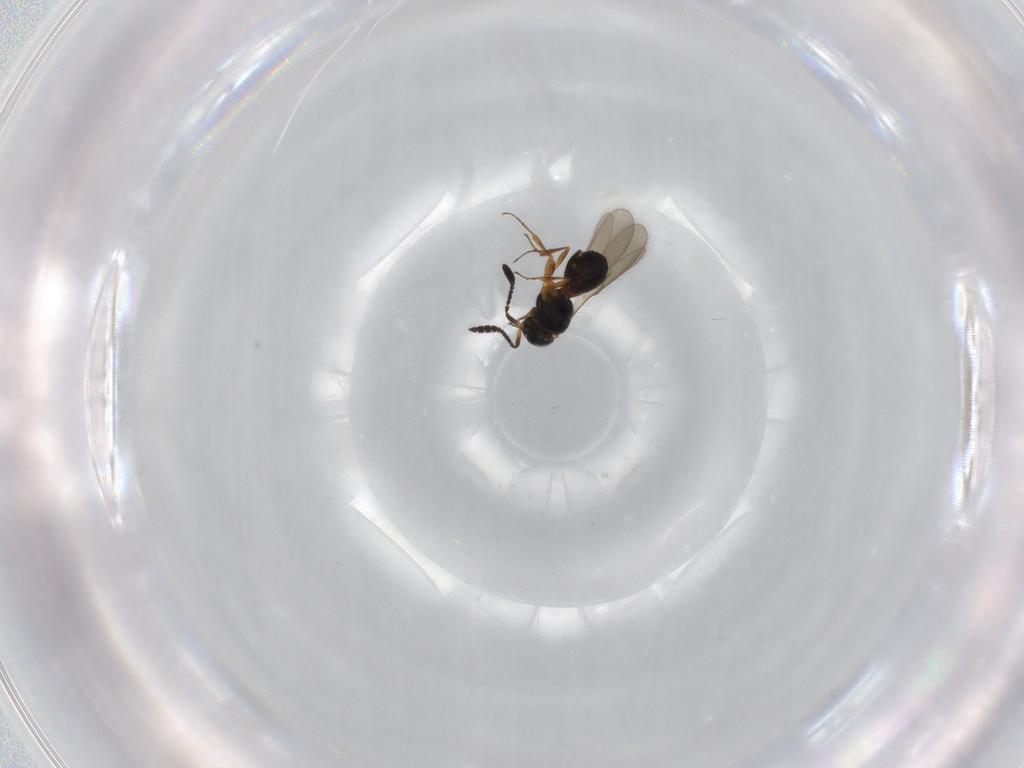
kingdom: Animalia
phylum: Arthropoda
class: Insecta
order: Hymenoptera
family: Scelionidae
